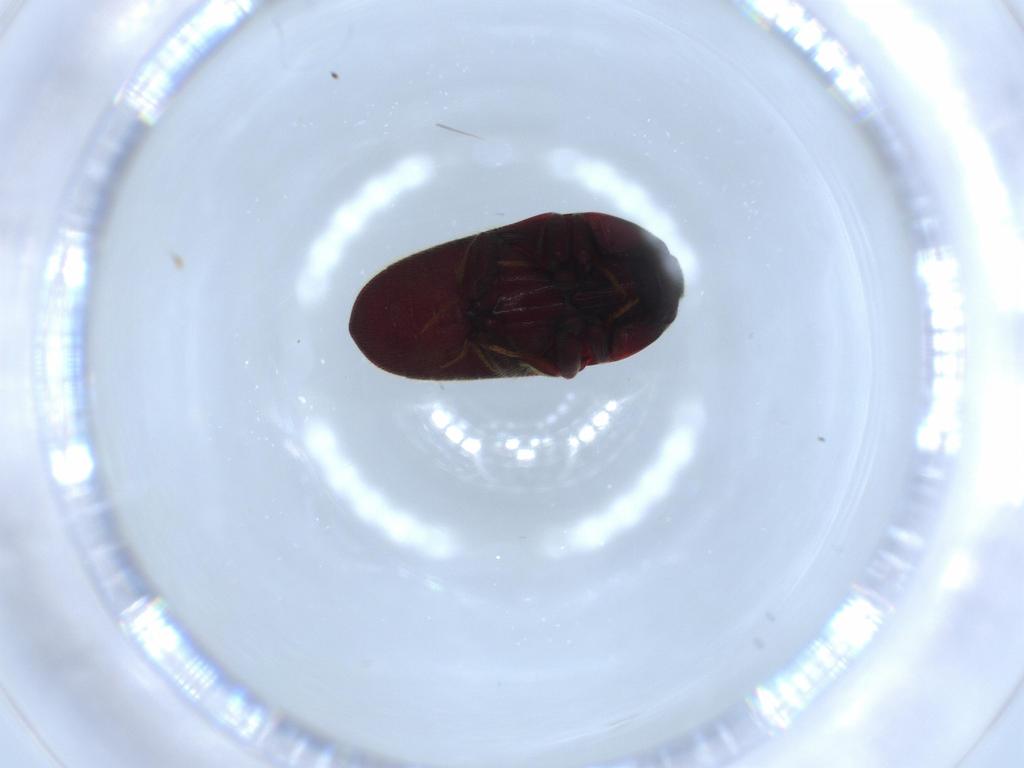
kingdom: Animalia
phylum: Arthropoda
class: Insecta
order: Coleoptera
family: Throscidae
